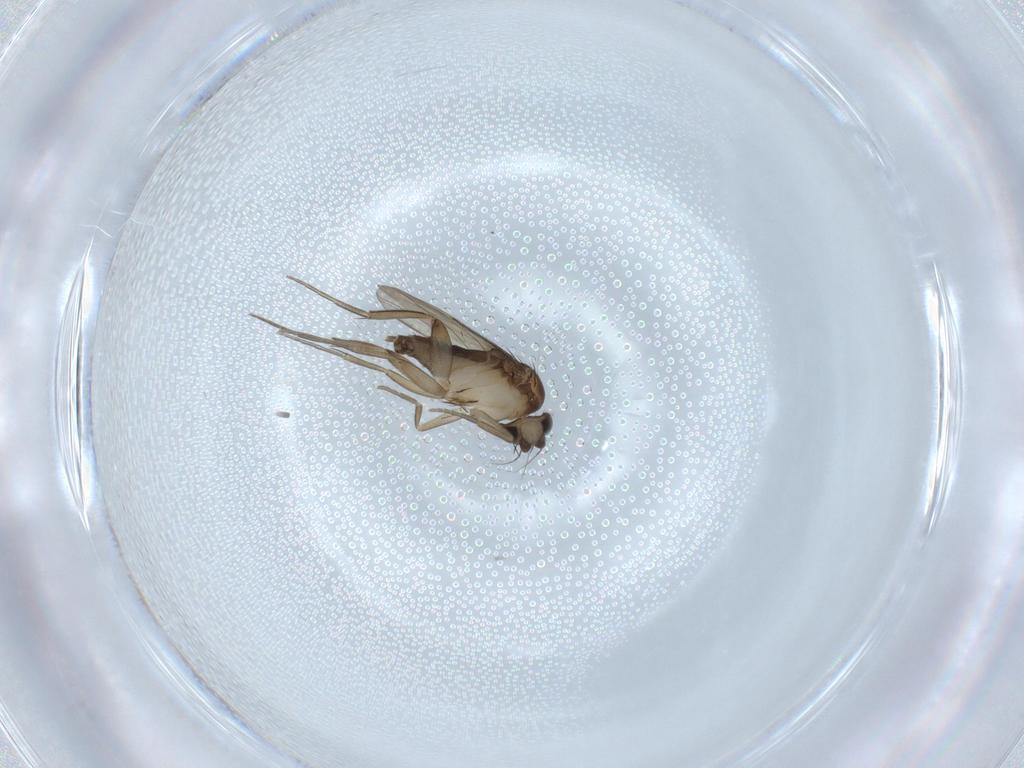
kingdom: Animalia
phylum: Arthropoda
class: Insecta
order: Diptera
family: Phoridae
